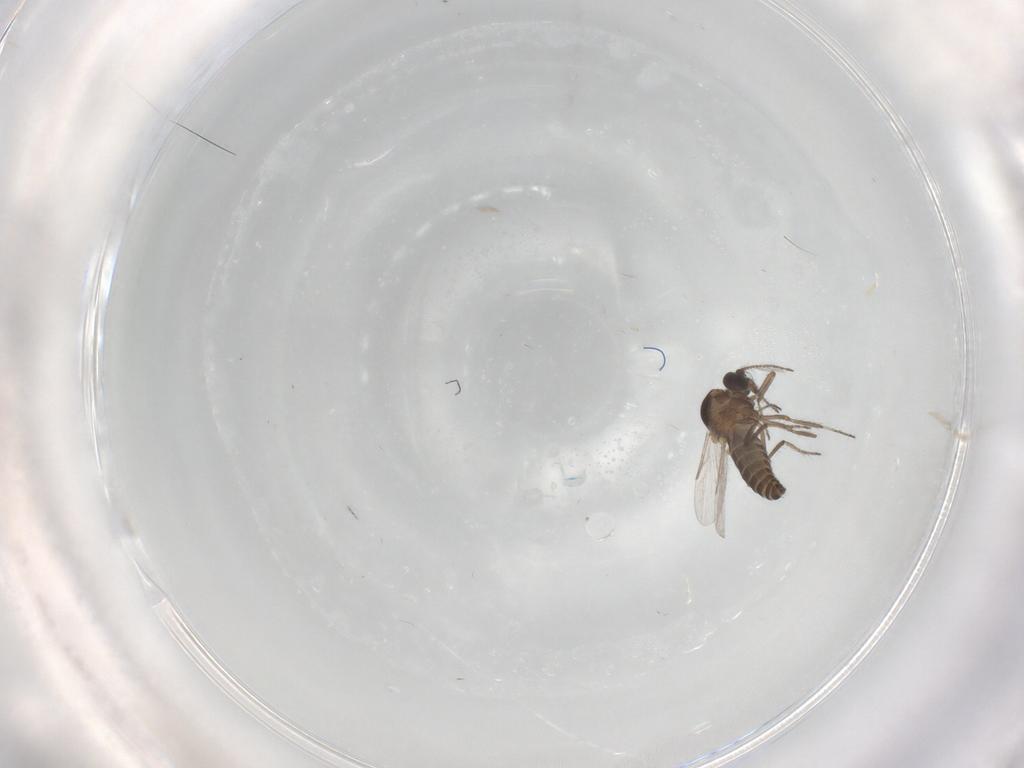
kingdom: Animalia
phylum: Arthropoda
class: Insecta
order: Diptera
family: Ceratopogonidae
